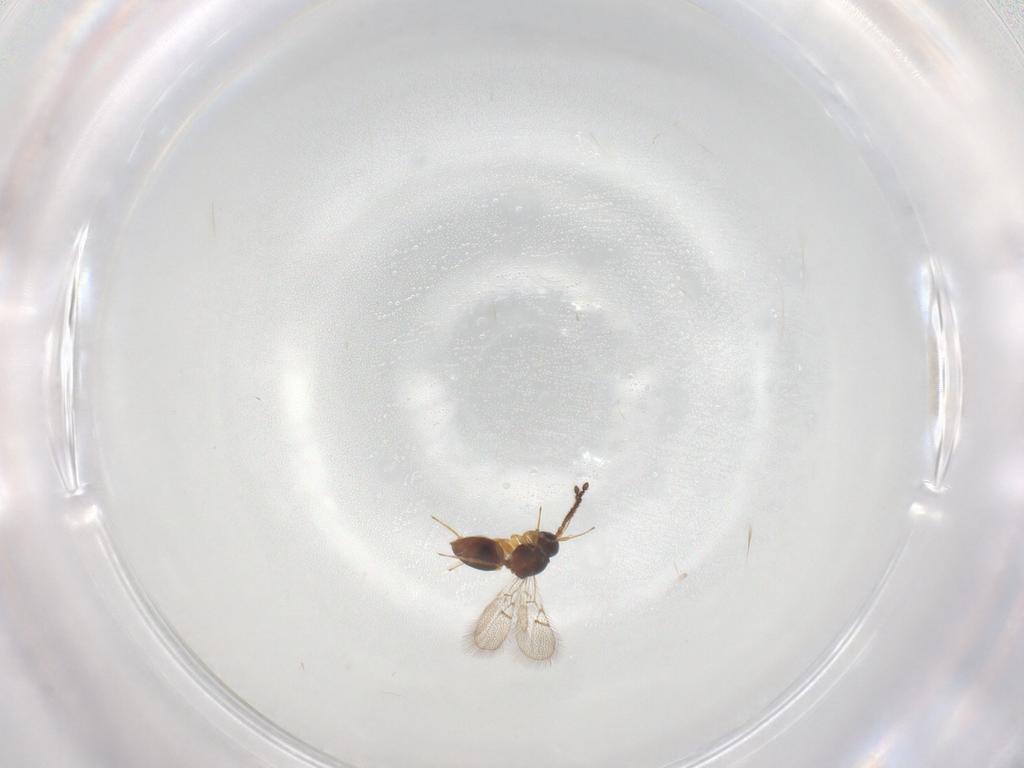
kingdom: Animalia
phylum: Arthropoda
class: Insecta
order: Hymenoptera
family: Figitidae
